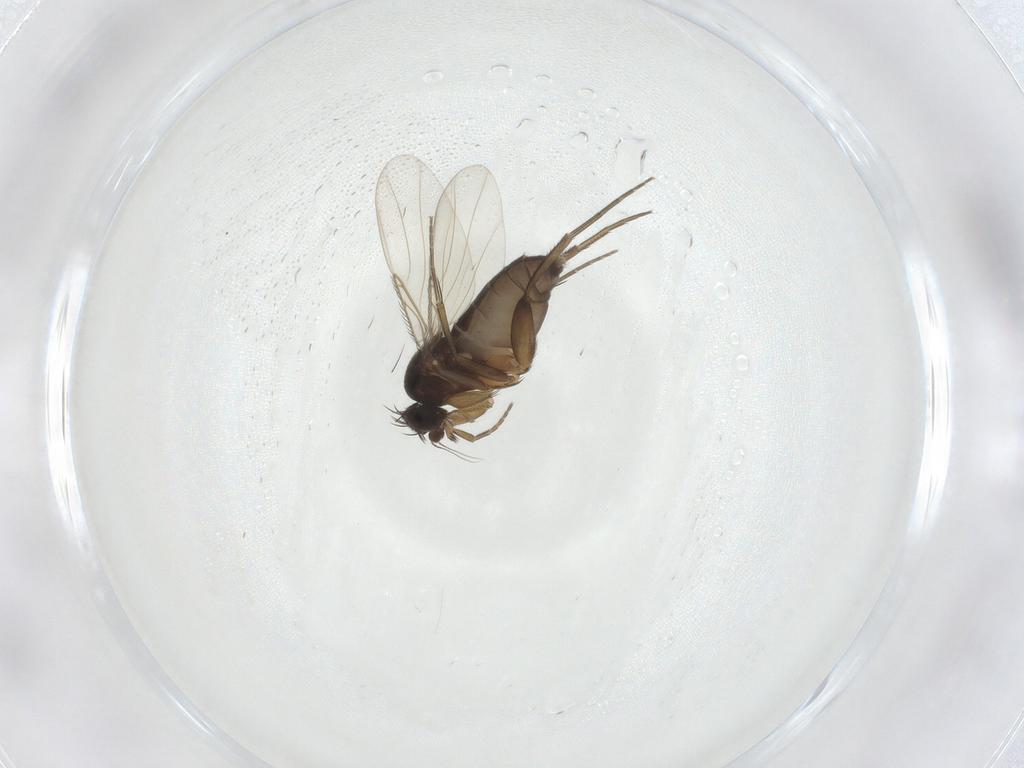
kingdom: Animalia
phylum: Arthropoda
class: Insecta
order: Diptera
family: Phoridae
